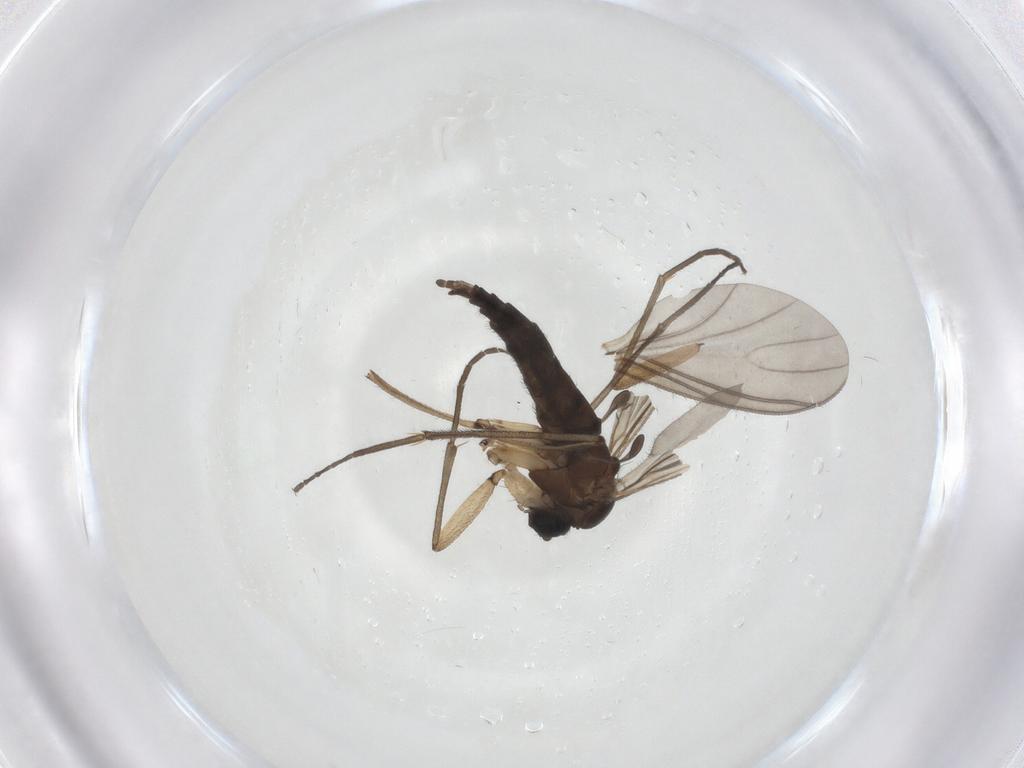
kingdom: Animalia
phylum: Arthropoda
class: Insecta
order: Diptera
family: Sciaridae
